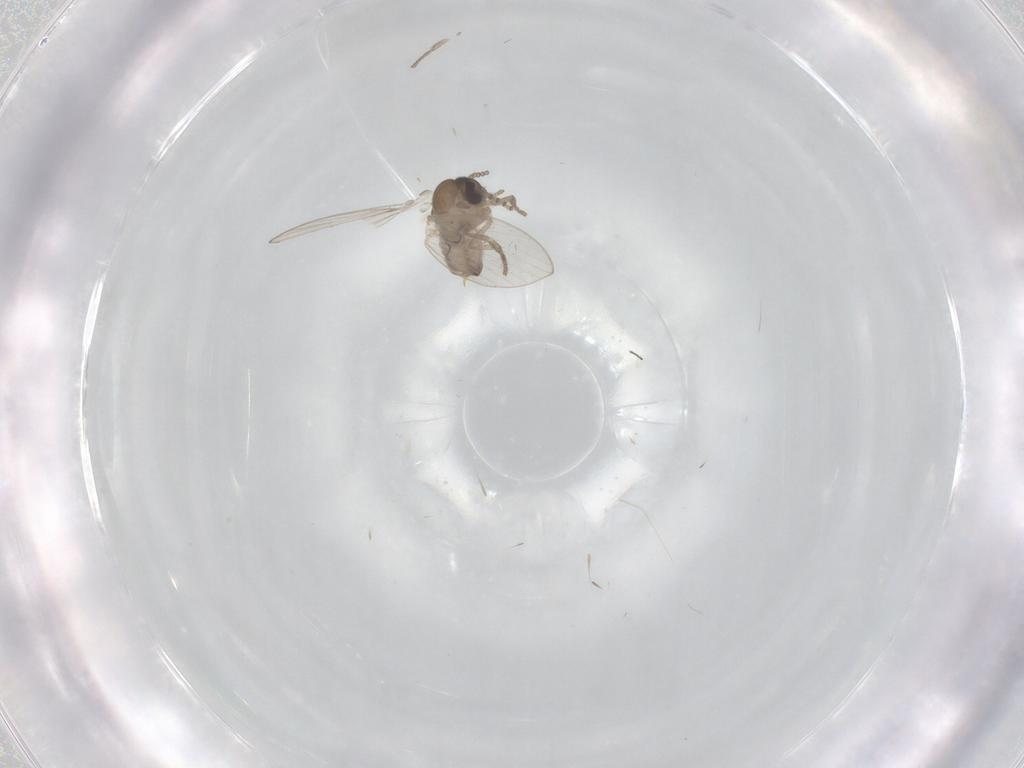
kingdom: Animalia
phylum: Arthropoda
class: Insecta
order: Diptera
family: Psychodidae
